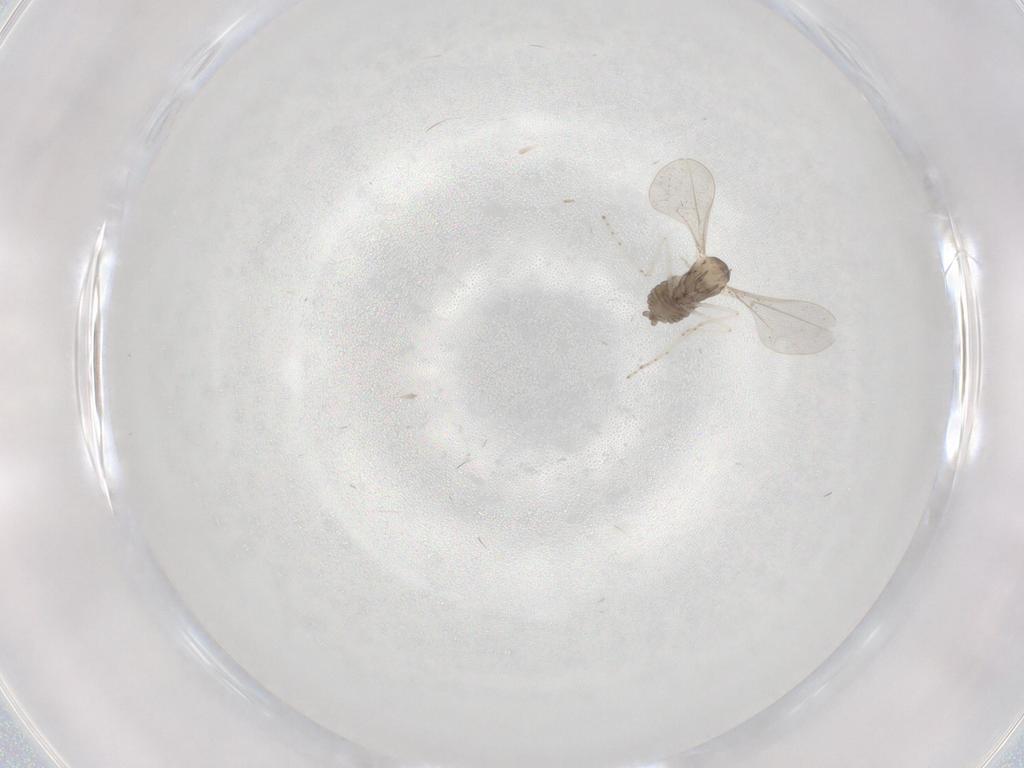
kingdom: Animalia
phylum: Arthropoda
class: Insecta
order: Diptera
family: Cecidomyiidae
